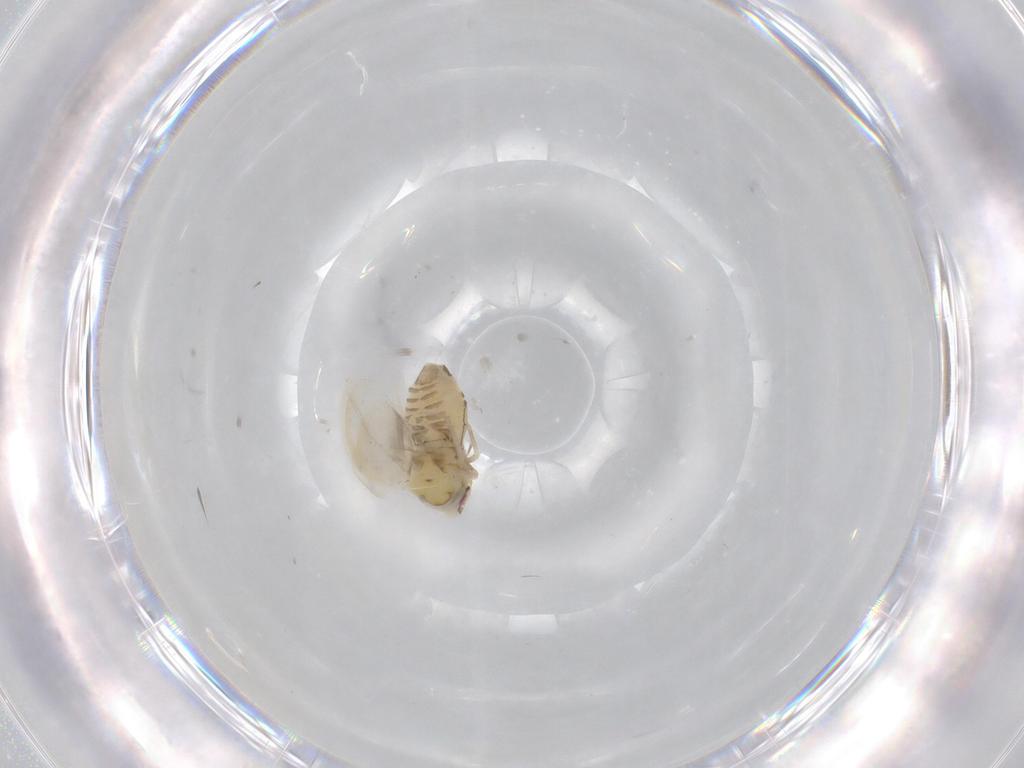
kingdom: Animalia
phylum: Arthropoda
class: Insecta
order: Hemiptera
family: Aleyrodidae
